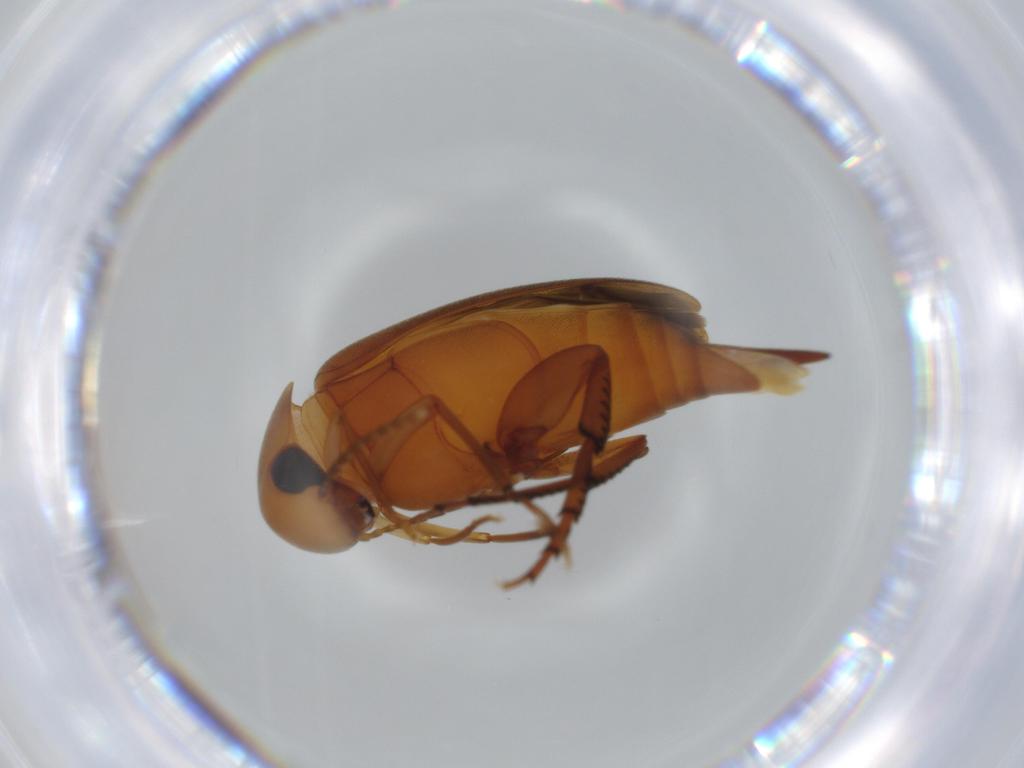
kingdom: Animalia
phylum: Arthropoda
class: Insecta
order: Coleoptera
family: Mordellidae
